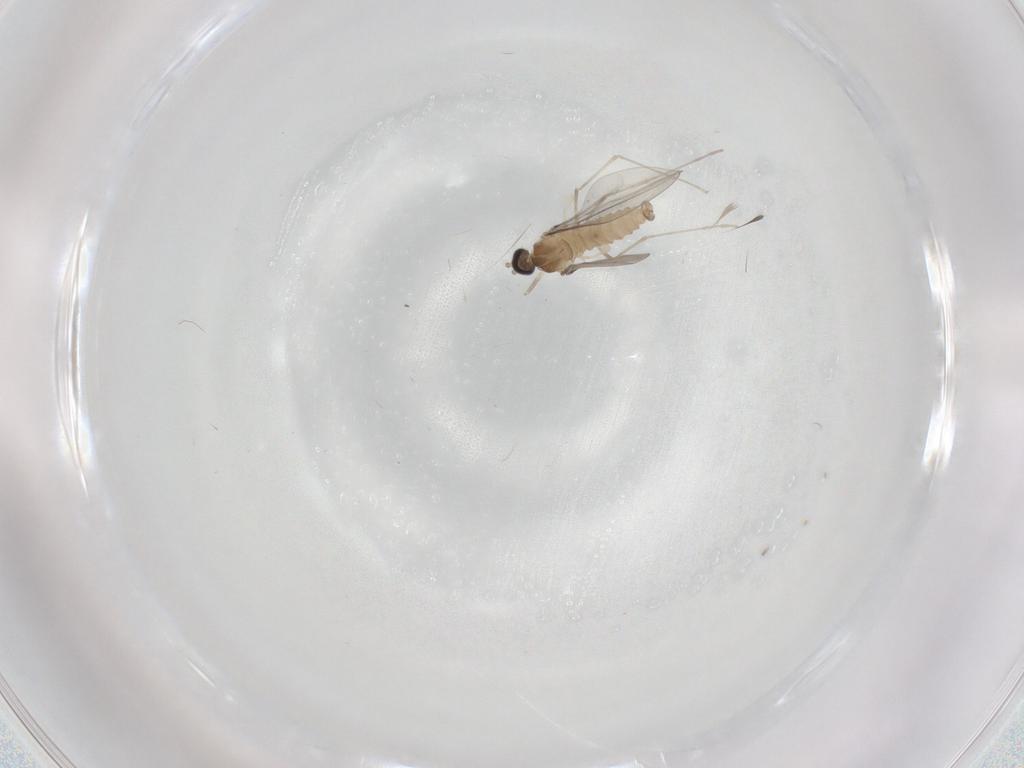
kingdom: Animalia
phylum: Arthropoda
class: Insecta
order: Diptera
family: Cecidomyiidae
